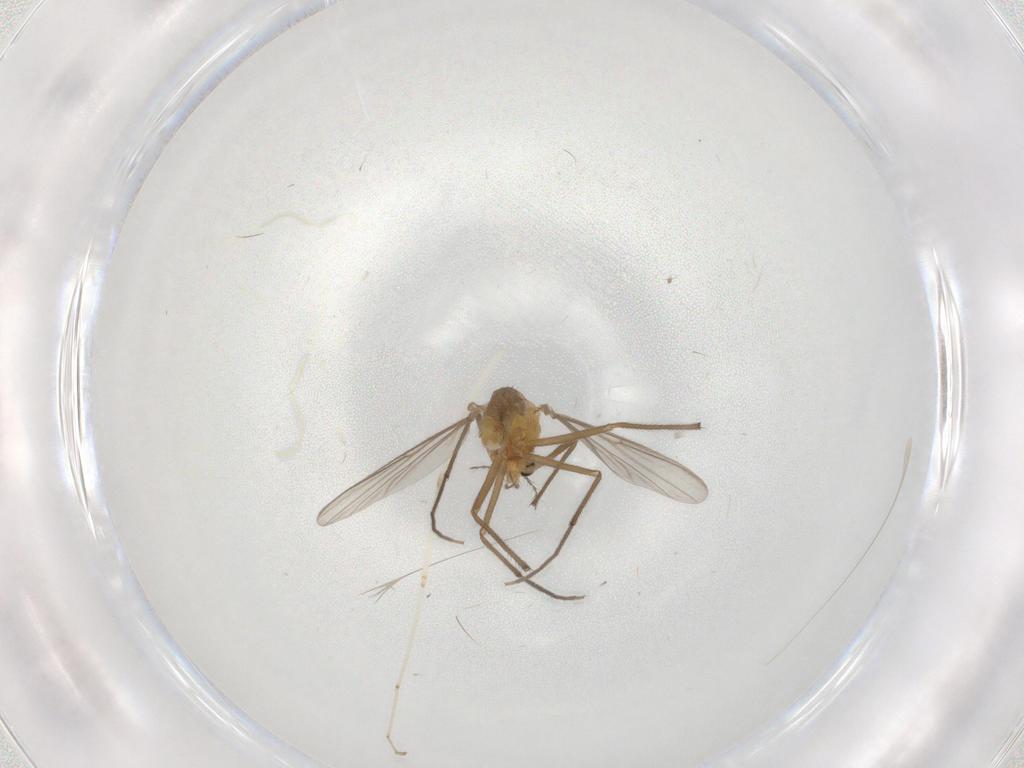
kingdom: Animalia
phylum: Arthropoda
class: Insecta
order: Diptera
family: Chironomidae
